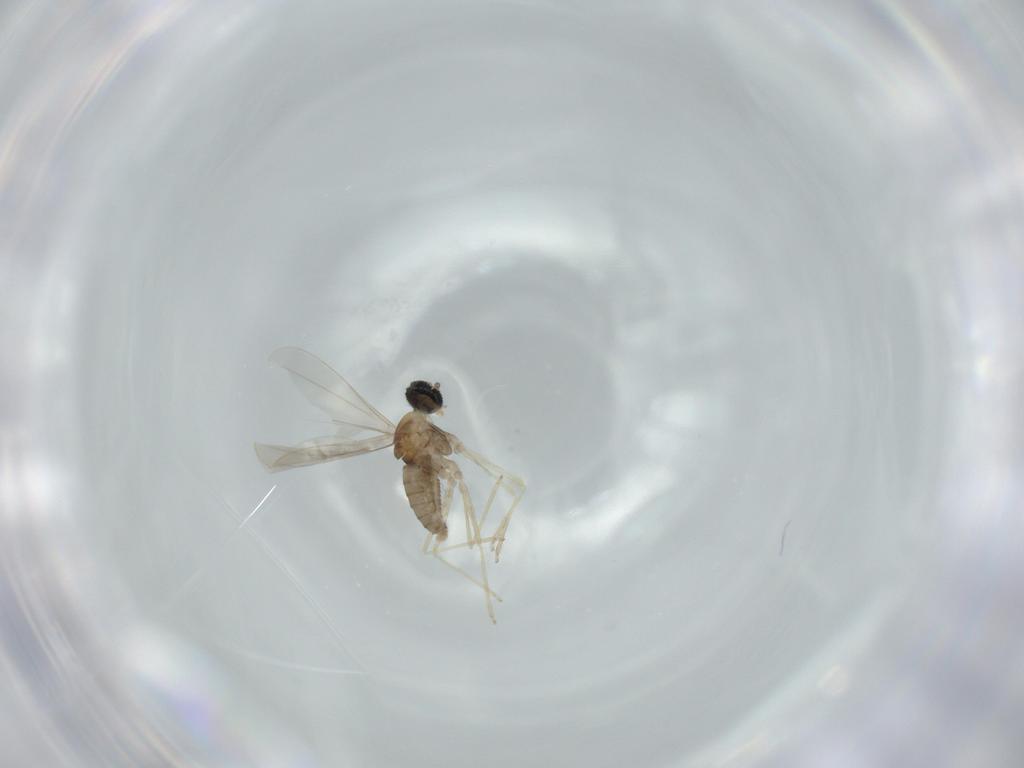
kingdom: Animalia
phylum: Arthropoda
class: Insecta
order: Diptera
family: Cecidomyiidae
